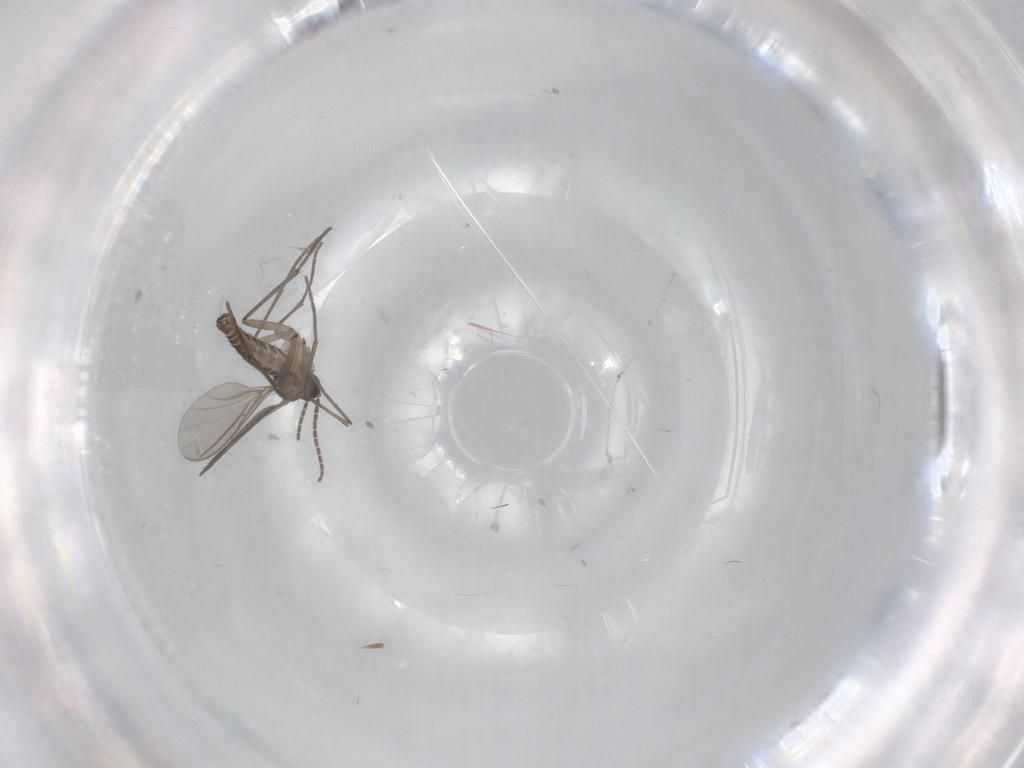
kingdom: Animalia
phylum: Arthropoda
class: Insecta
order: Diptera
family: Sciaridae
